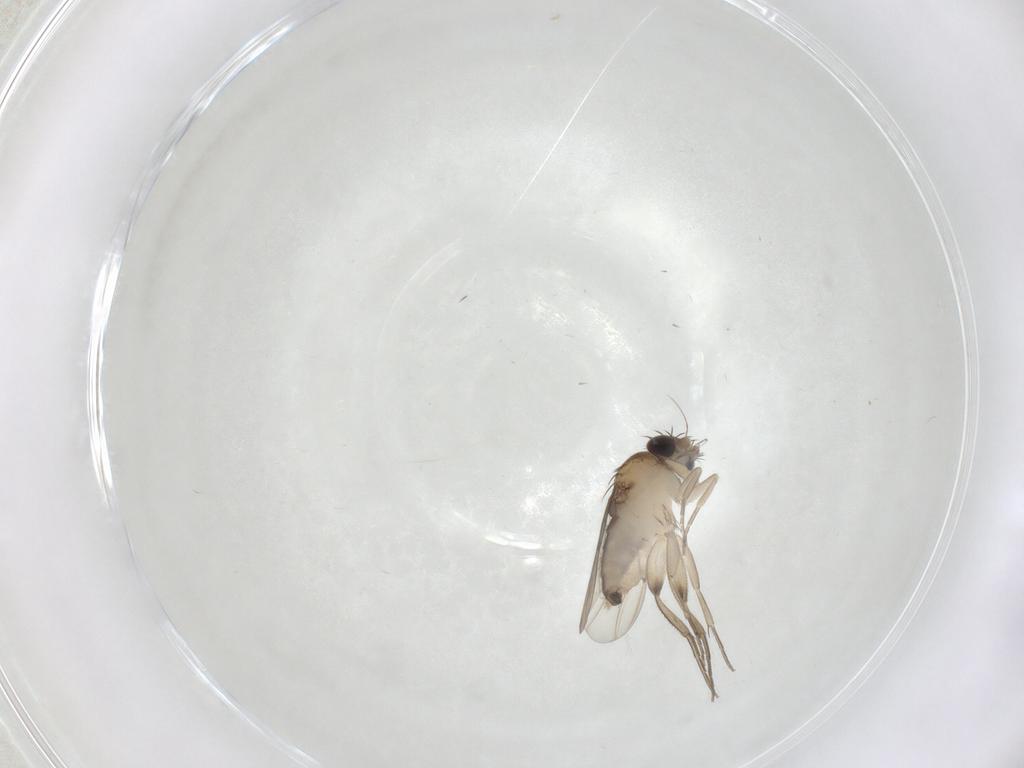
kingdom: Animalia
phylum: Arthropoda
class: Insecta
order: Diptera
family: Phoridae
